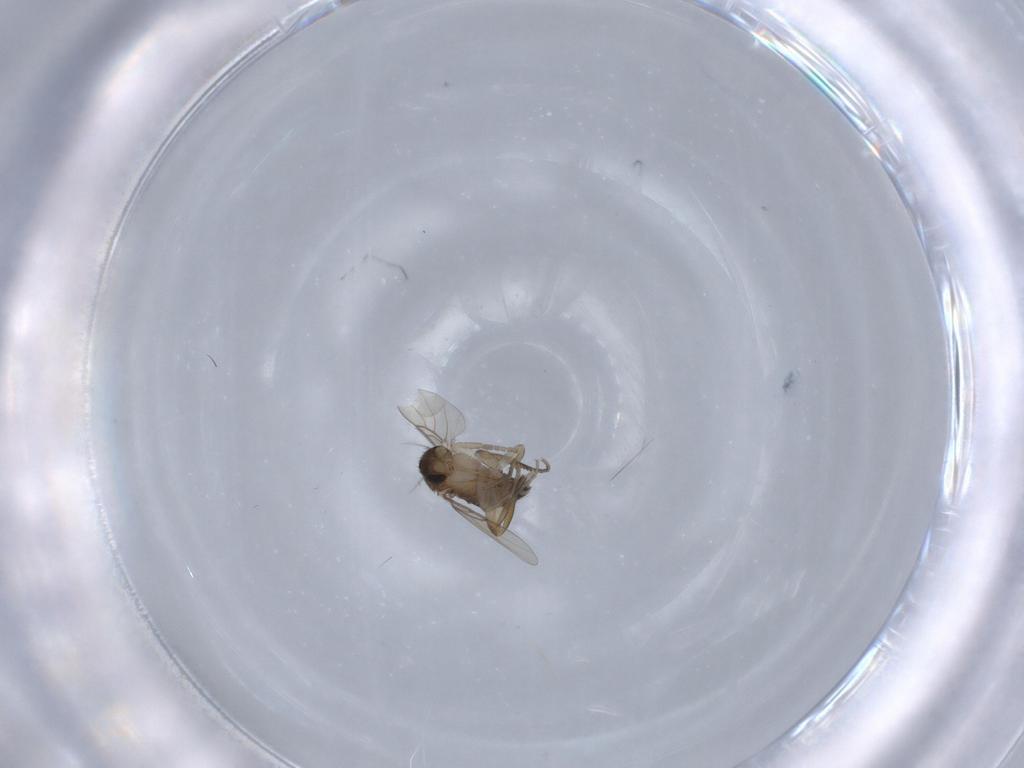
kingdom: Animalia
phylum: Arthropoda
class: Insecta
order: Diptera
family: Phoridae
